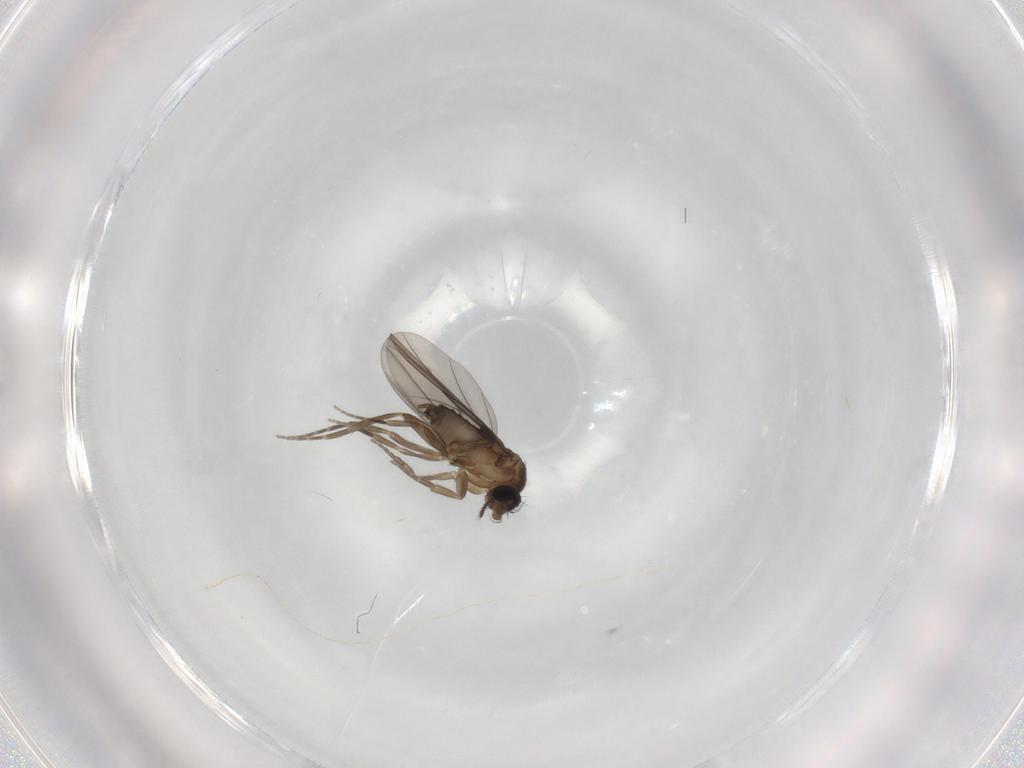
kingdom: Animalia
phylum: Arthropoda
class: Insecta
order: Diptera
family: Phoridae
